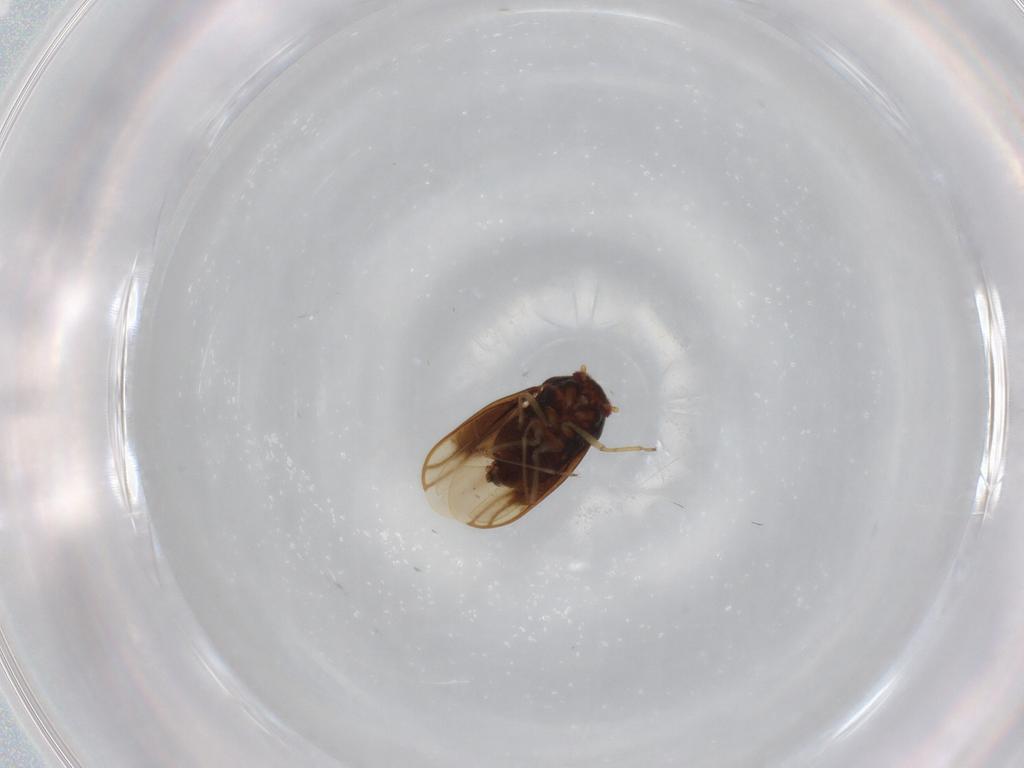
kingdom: Animalia
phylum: Arthropoda
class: Insecta
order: Hemiptera
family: Schizopteridae
